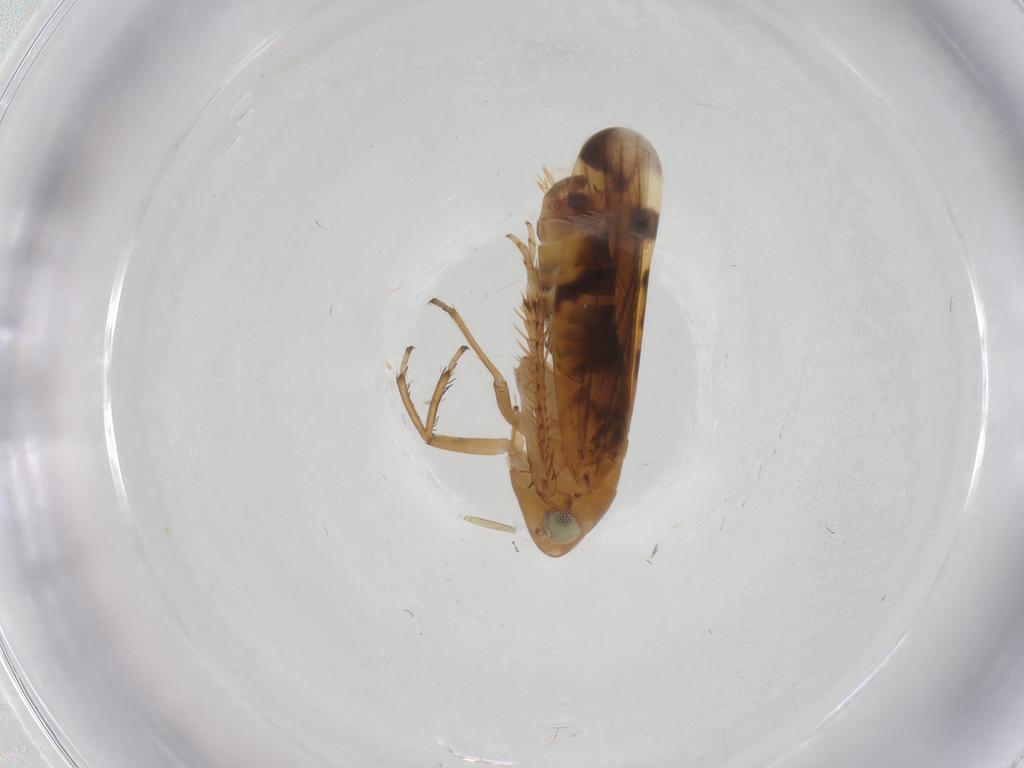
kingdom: Animalia
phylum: Arthropoda
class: Insecta
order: Hemiptera
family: Cicadellidae
